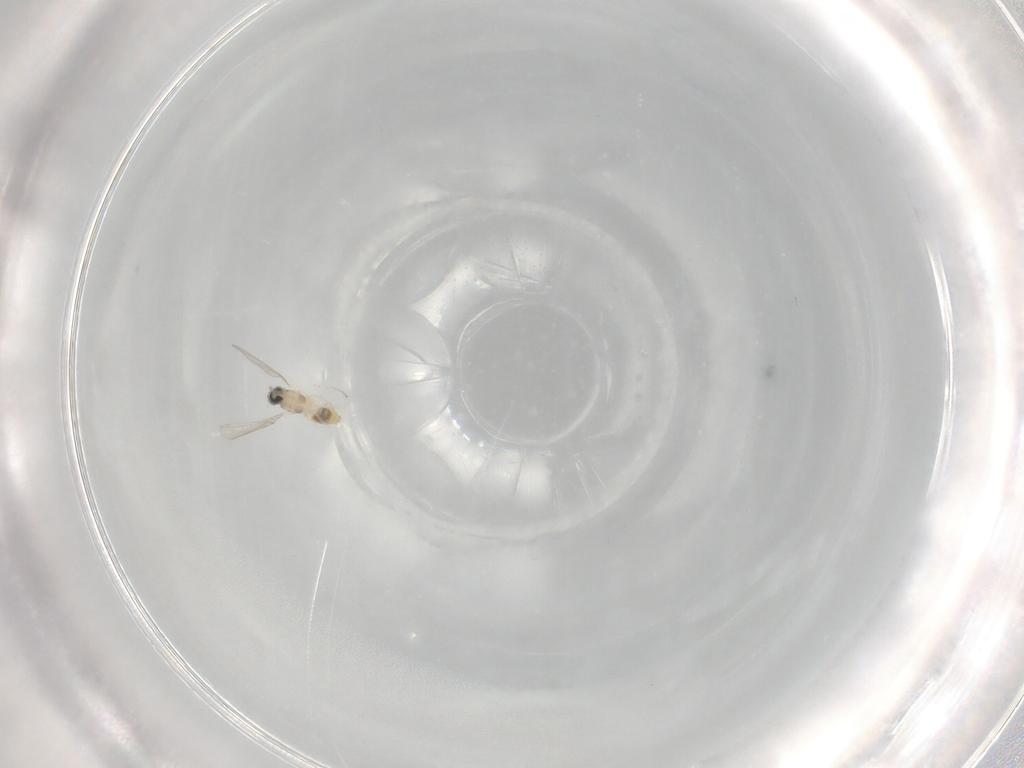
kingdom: Animalia
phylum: Arthropoda
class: Insecta
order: Diptera
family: Cecidomyiidae
